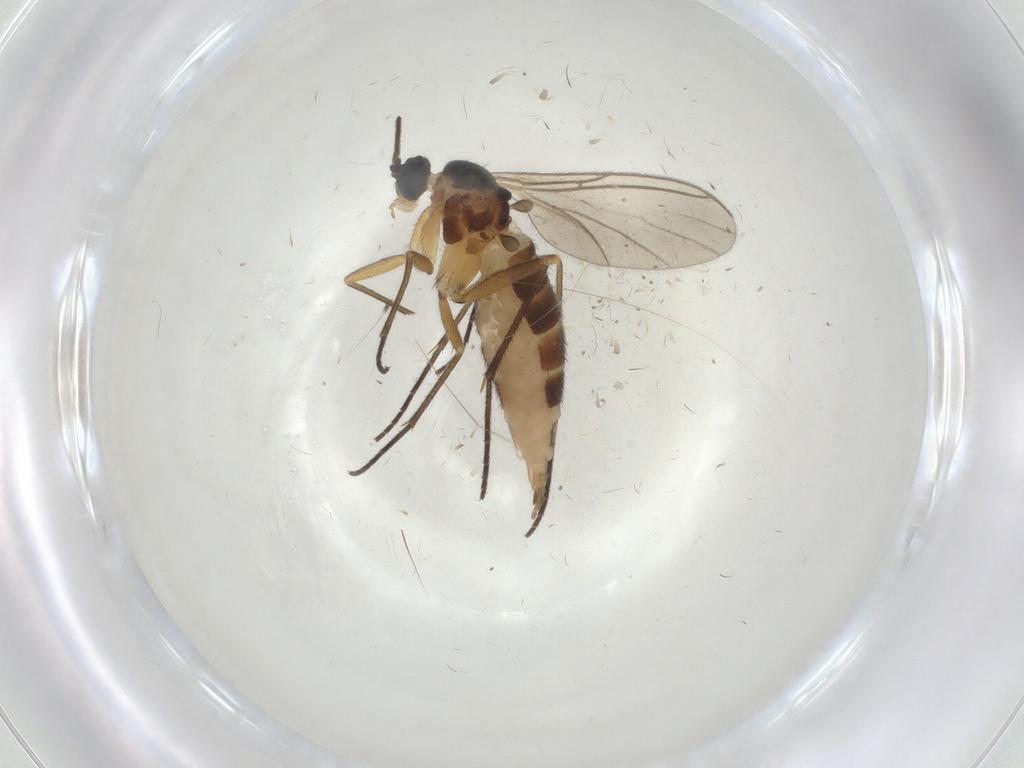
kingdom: Animalia
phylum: Arthropoda
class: Insecta
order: Diptera
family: Sciaridae
